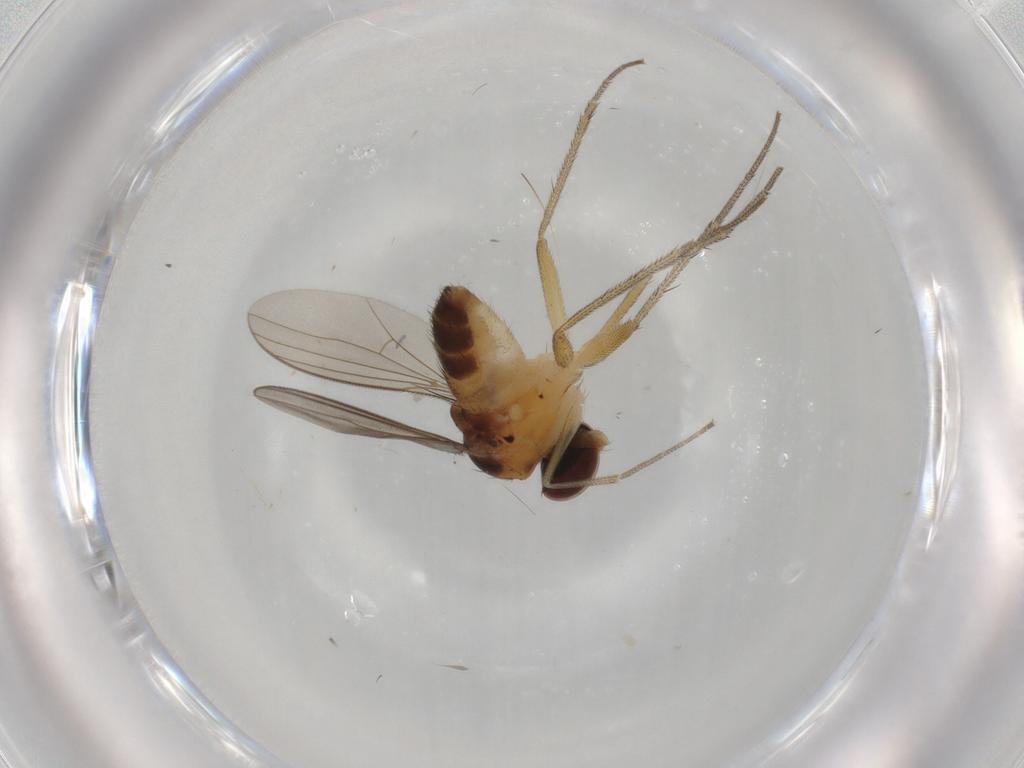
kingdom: Animalia
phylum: Arthropoda
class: Insecta
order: Diptera
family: Dolichopodidae
